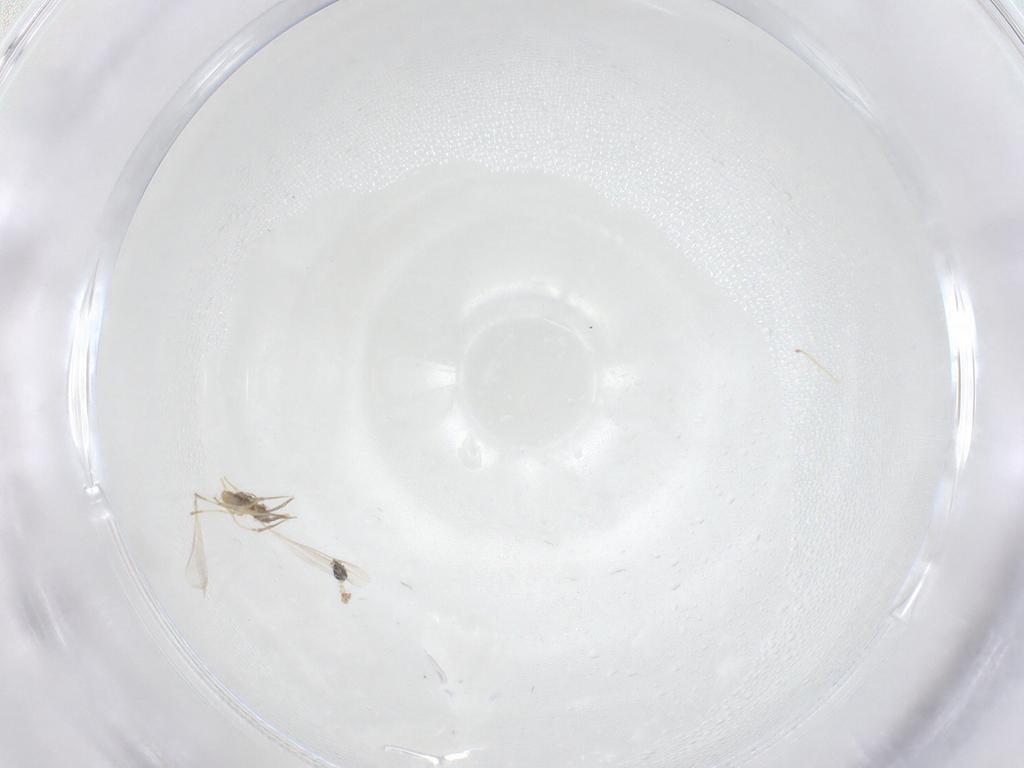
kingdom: Animalia
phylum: Arthropoda
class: Insecta
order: Diptera
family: Cecidomyiidae
